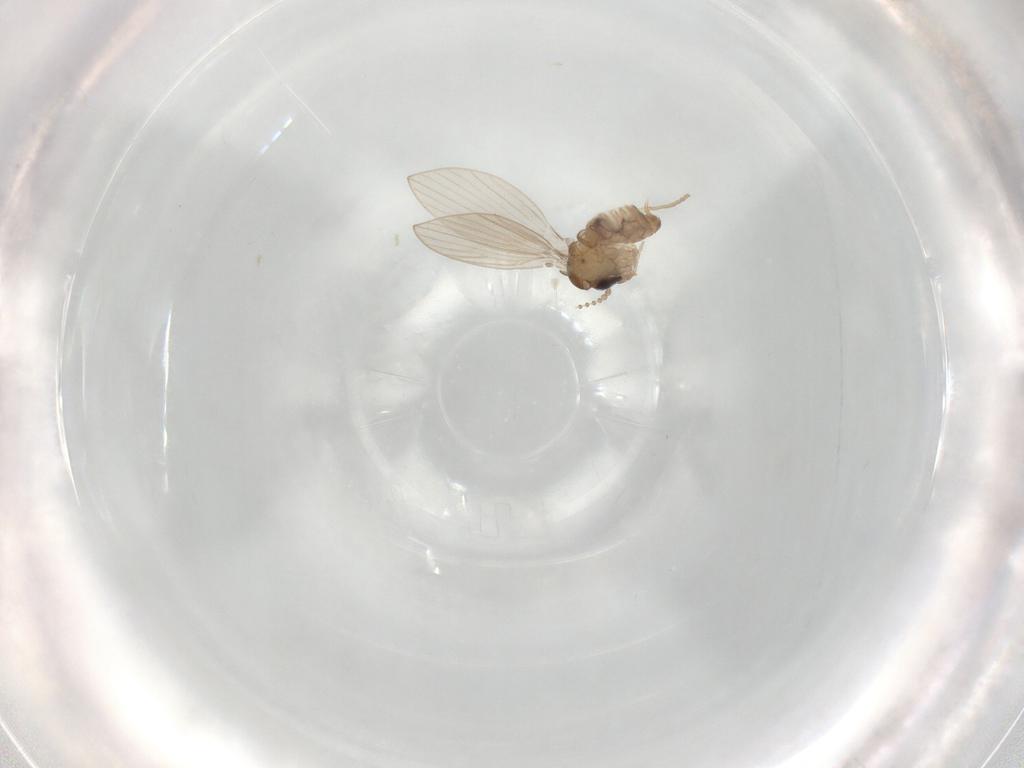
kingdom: Animalia
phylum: Arthropoda
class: Insecta
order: Diptera
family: Psychodidae
